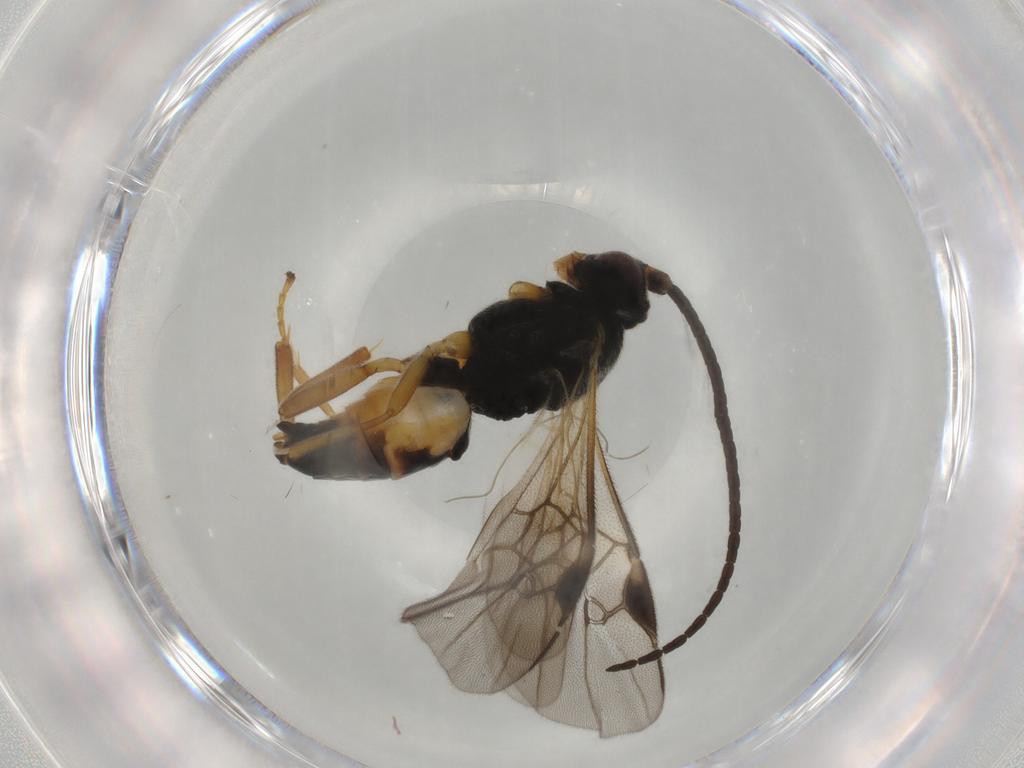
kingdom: Animalia
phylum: Arthropoda
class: Insecta
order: Hymenoptera
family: Braconidae
